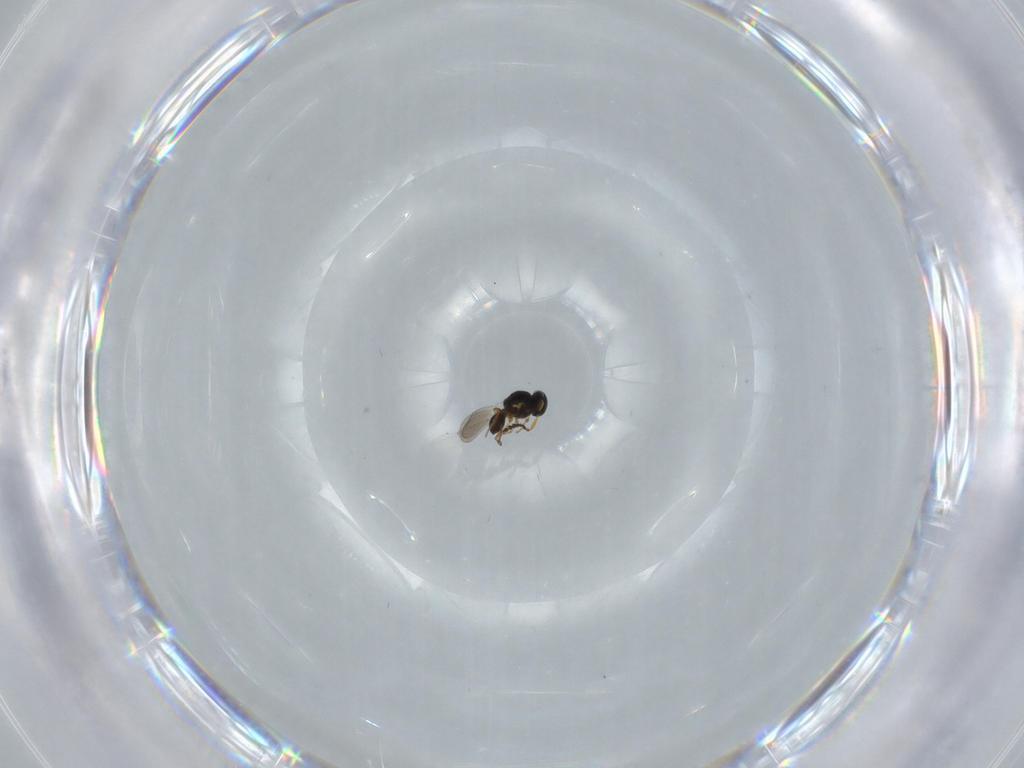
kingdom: Animalia
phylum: Arthropoda
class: Insecta
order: Hymenoptera
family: Platygastridae
